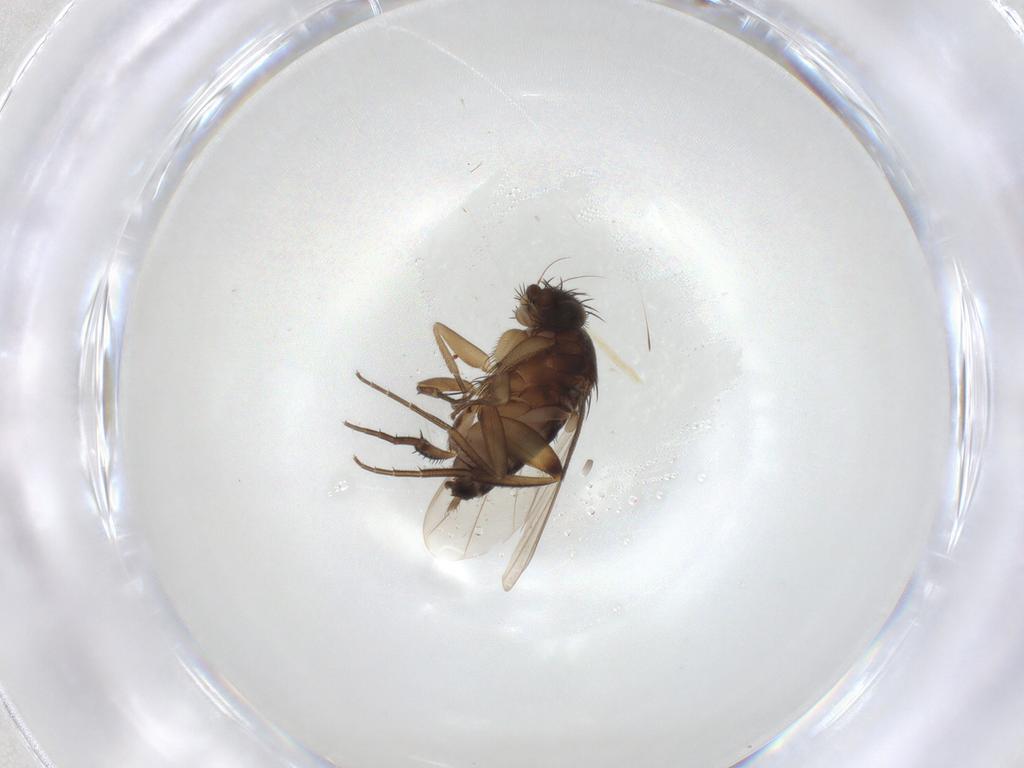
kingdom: Animalia
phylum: Arthropoda
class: Insecta
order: Diptera
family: Phoridae
